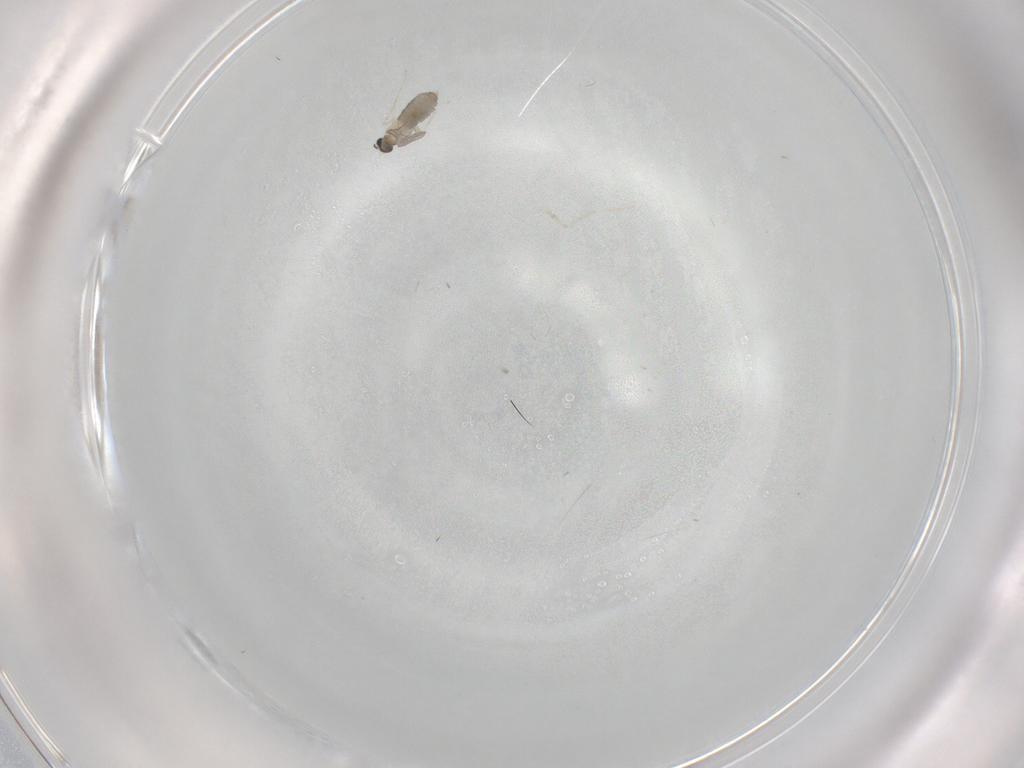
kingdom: Animalia
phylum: Arthropoda
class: Insecta
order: Diptera
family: Cecidomyiidae
